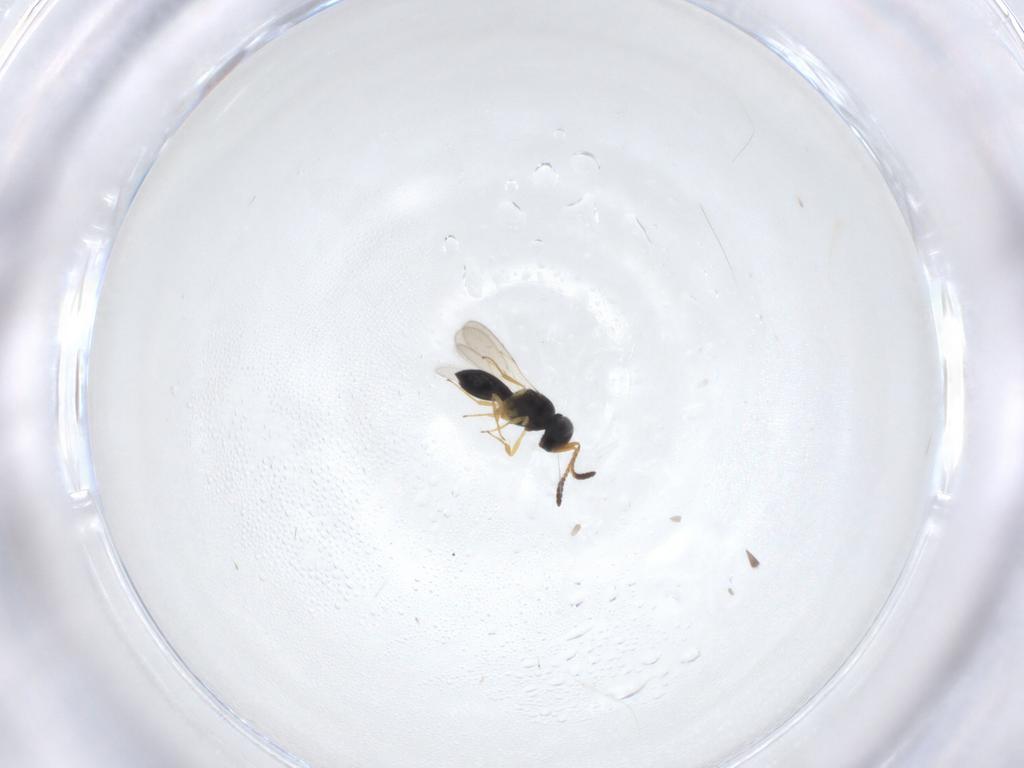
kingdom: Animalia
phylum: Arthropoda
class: Insecta
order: Hymenoptera
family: Scelionidae
